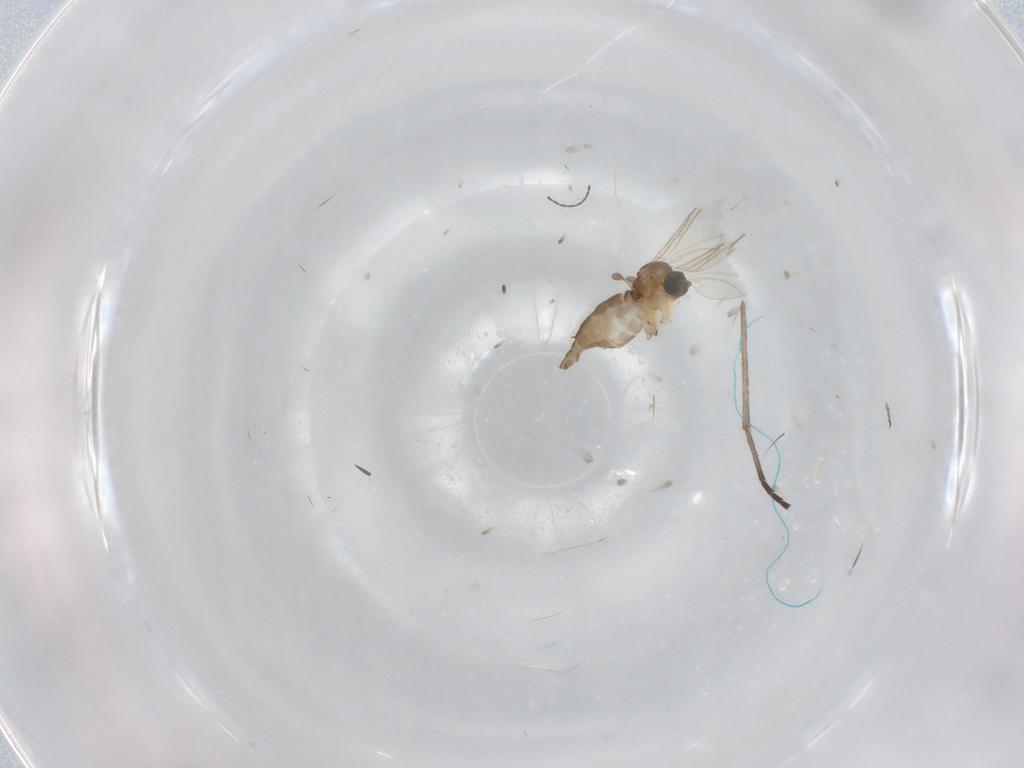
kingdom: Animalia
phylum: Arthropoda
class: Insecta
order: Diptera
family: Sciaridae
